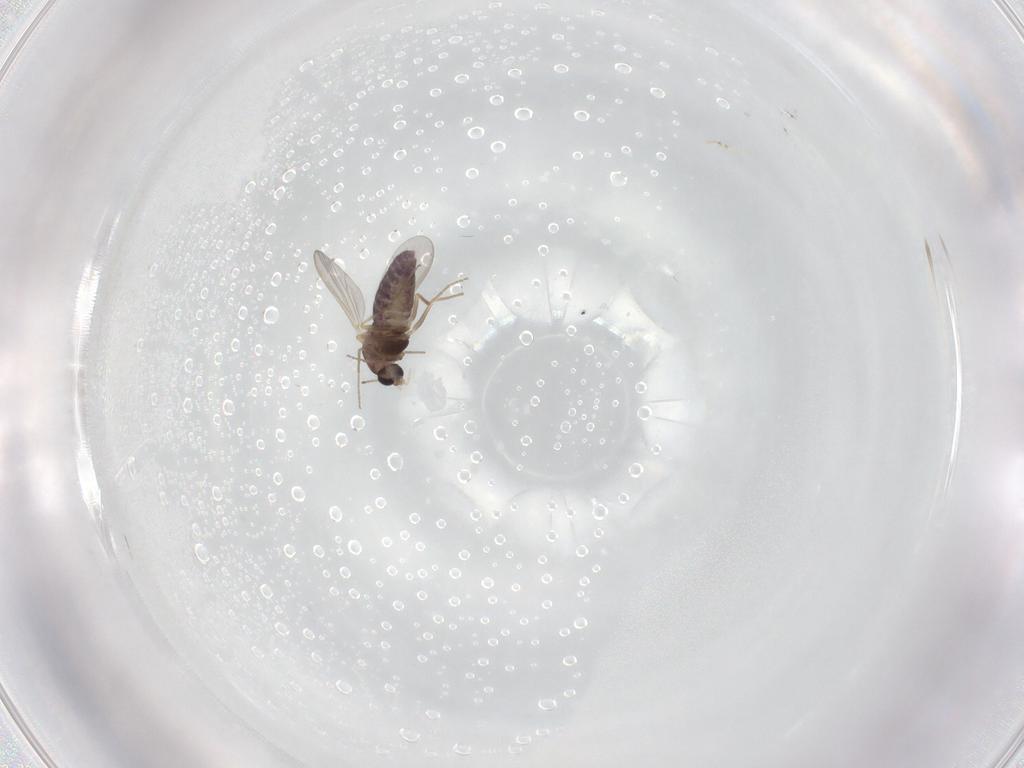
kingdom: Animalia
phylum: Arthropoda
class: Insecta
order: Diptera
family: Chironomidae
